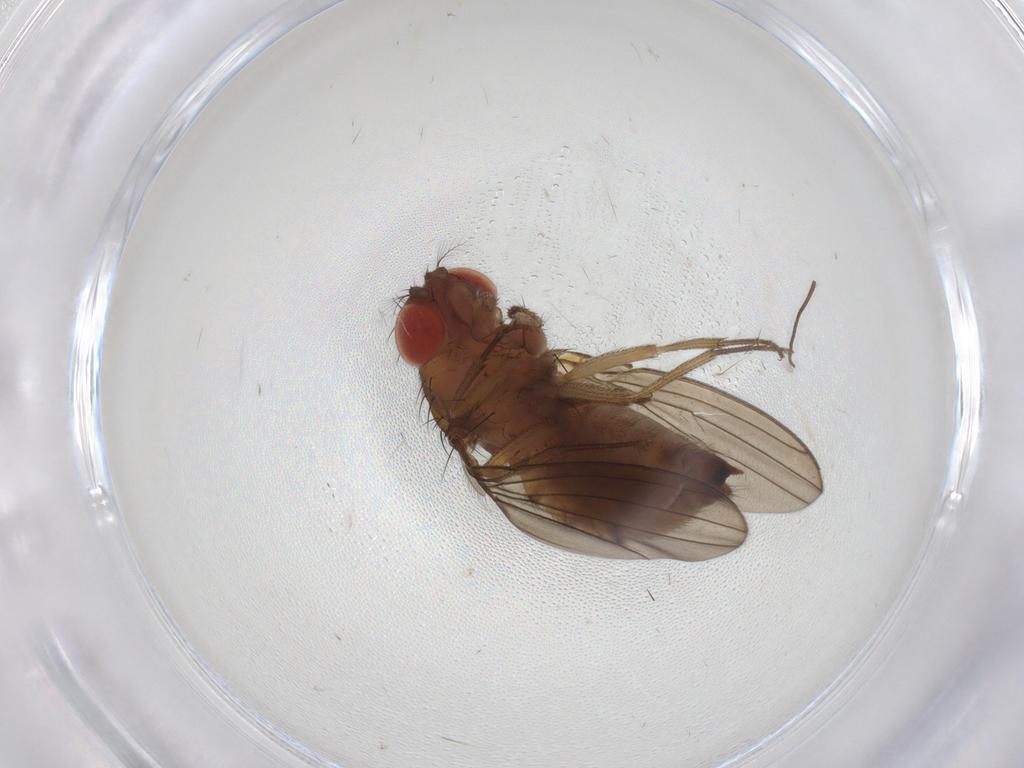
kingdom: Animalia
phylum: Arthropoda
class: Insecta
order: Diptera
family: Drosophilidae
